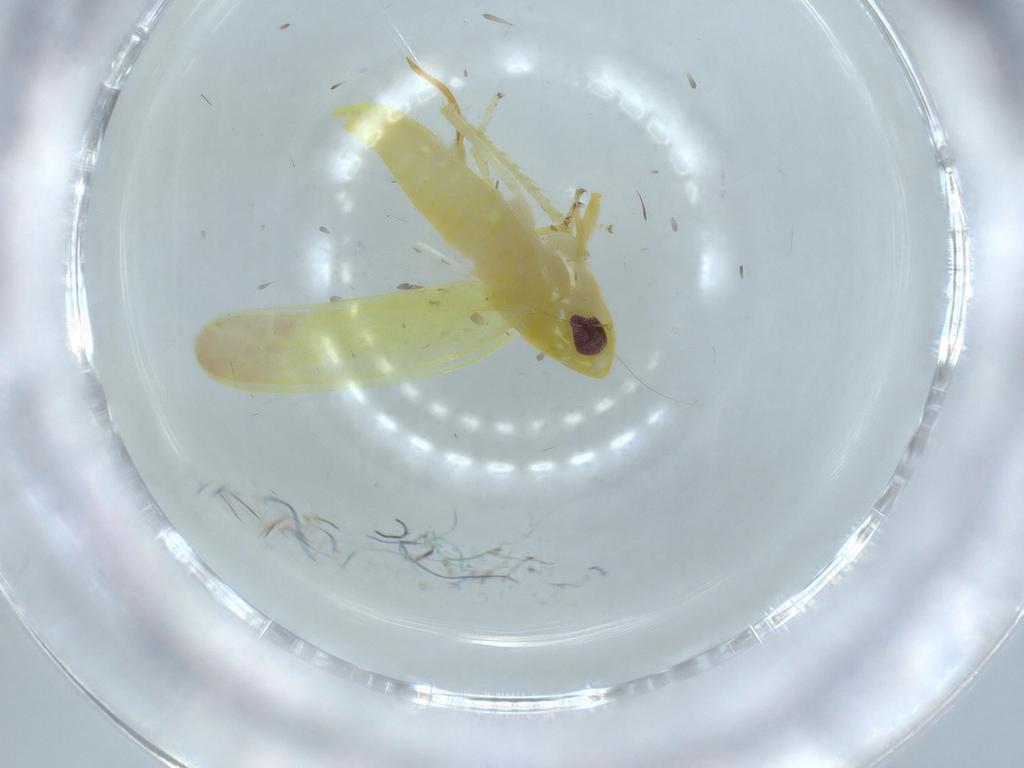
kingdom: Animalia
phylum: Arthropoda
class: Insecta
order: Hemiptera
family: Cicadellidae
